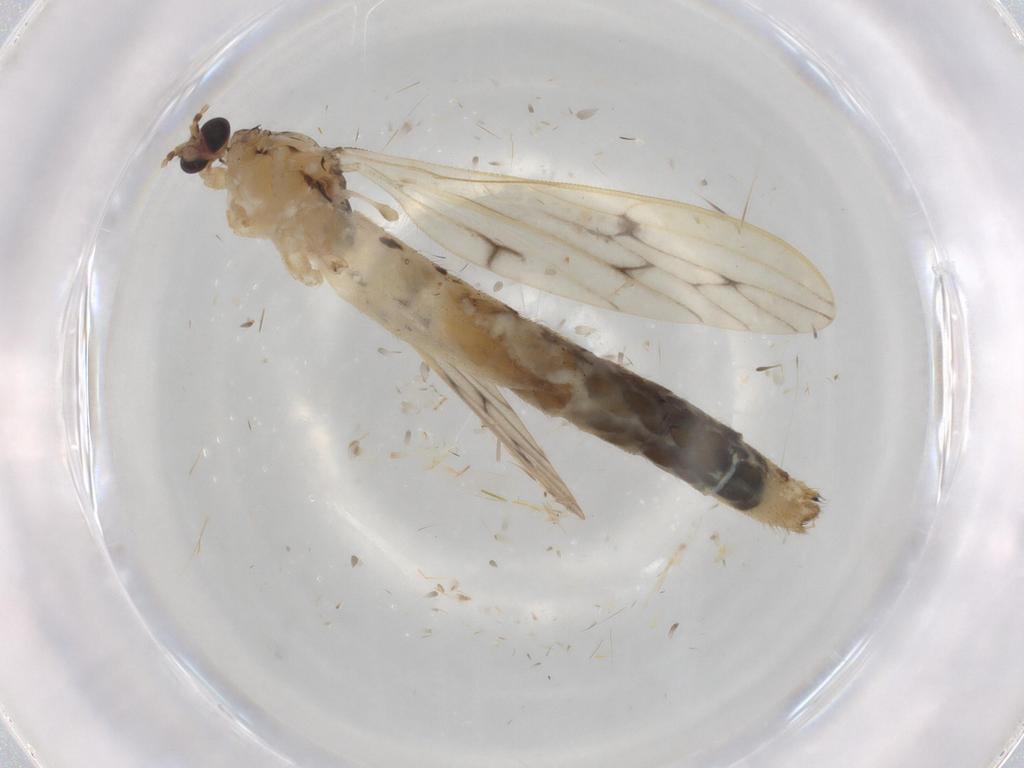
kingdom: Animalia
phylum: Arthropoda
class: Insecta
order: Diptera
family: Limoniidae
